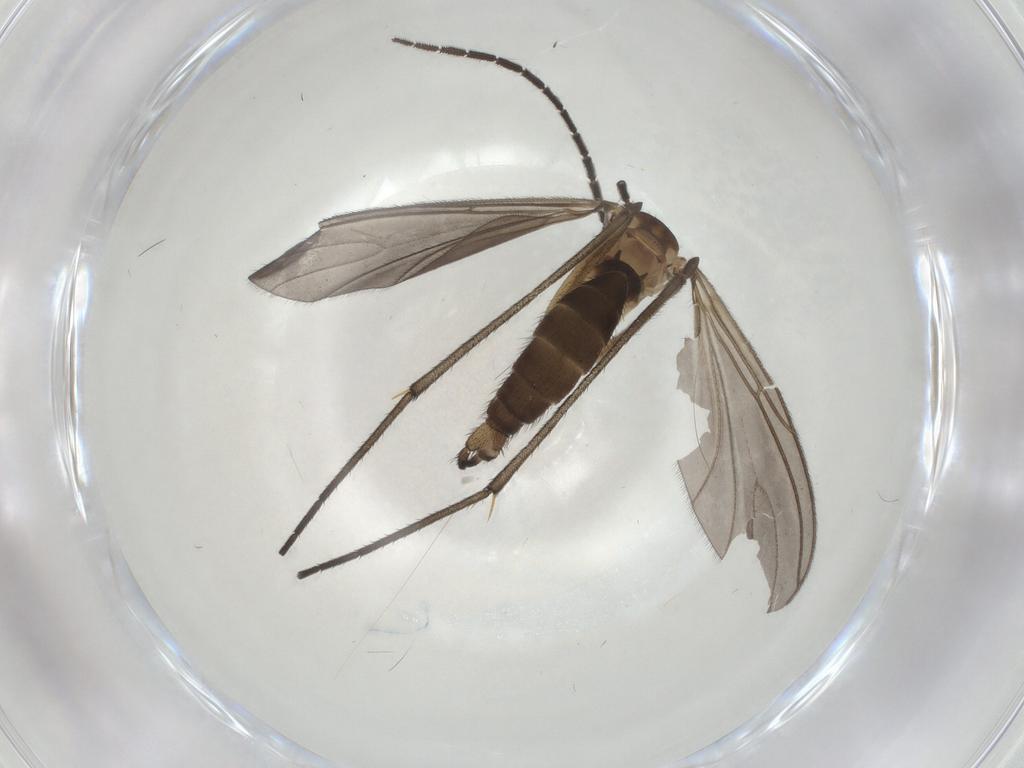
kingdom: Animalia
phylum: Arthropoda
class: Insecta
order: Diptera
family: Sciaridae
